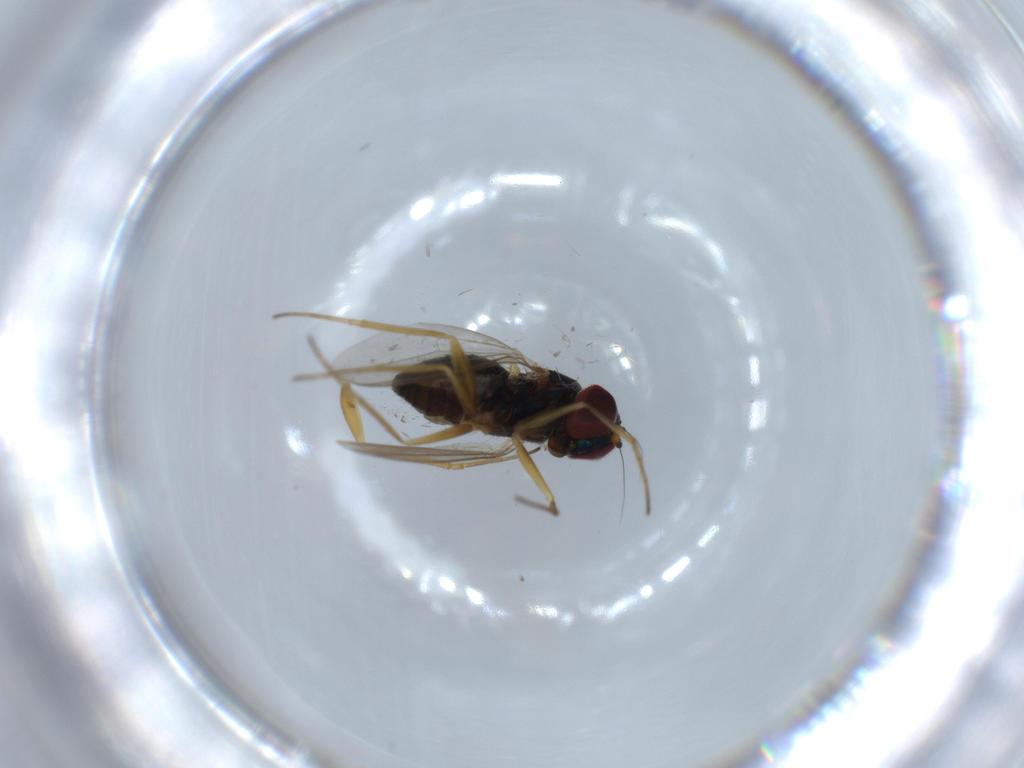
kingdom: Animalia
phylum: Arthropoda
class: Insecta
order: Diptera
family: Dolichopodidae
